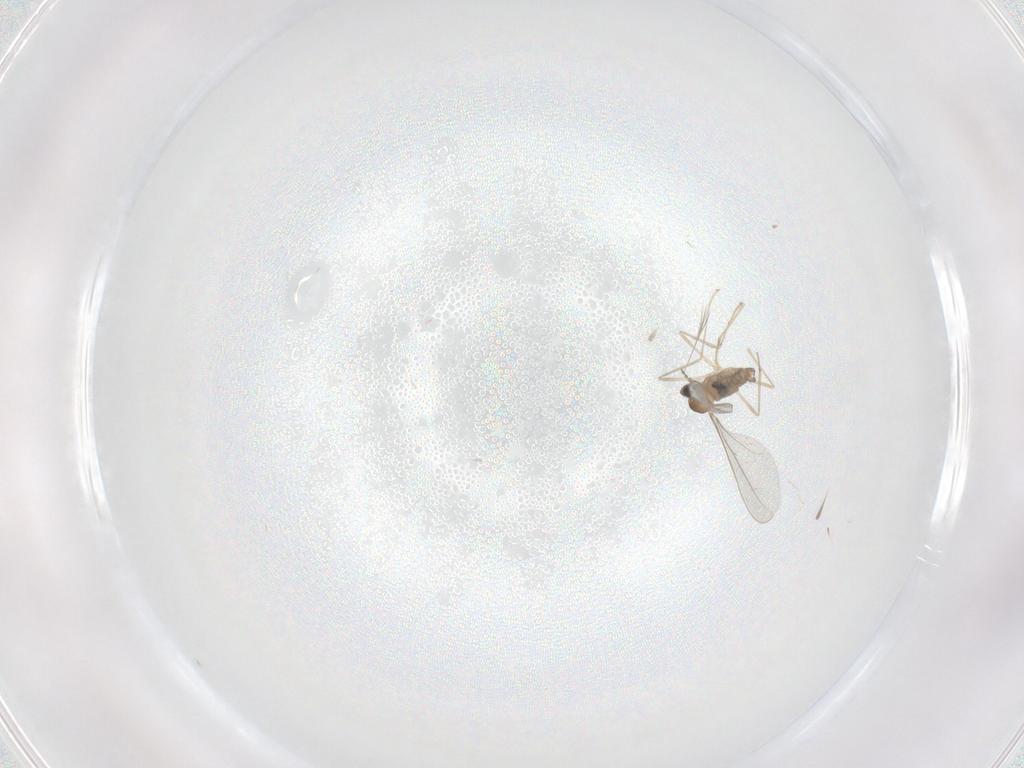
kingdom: Animalia
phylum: Arthropoda
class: Insecta
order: Diptera
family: Cecidomyiidae
